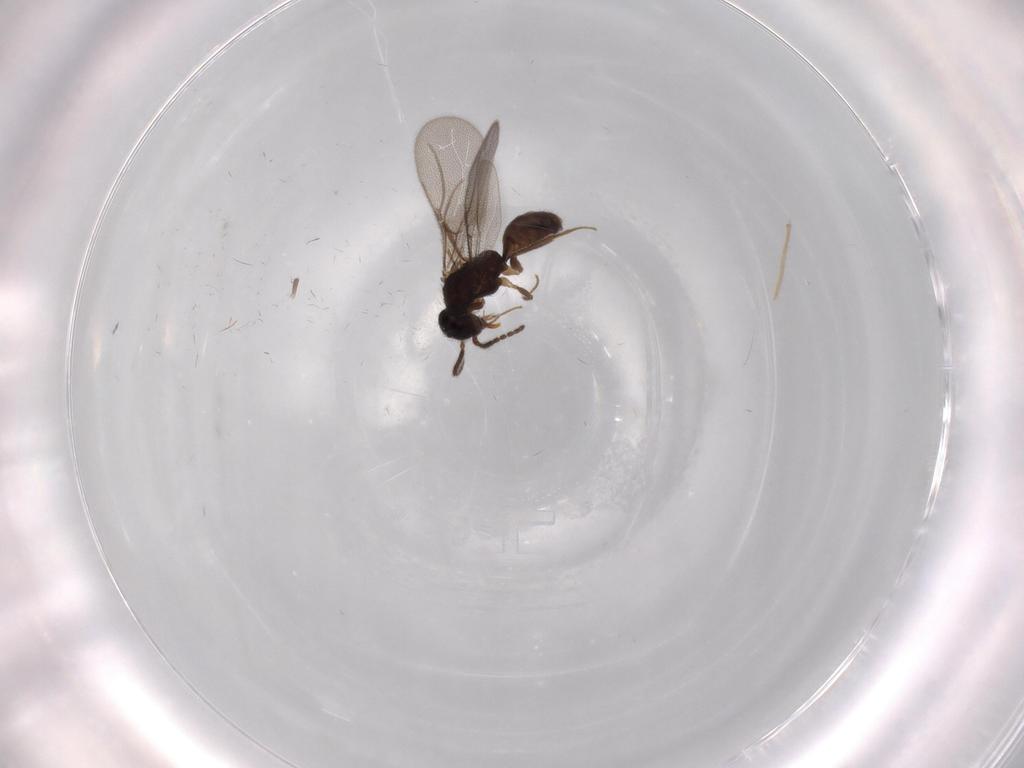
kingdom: Animalia
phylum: Arthropoda
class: Insecta
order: Hymenoptera
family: Bethylidae
